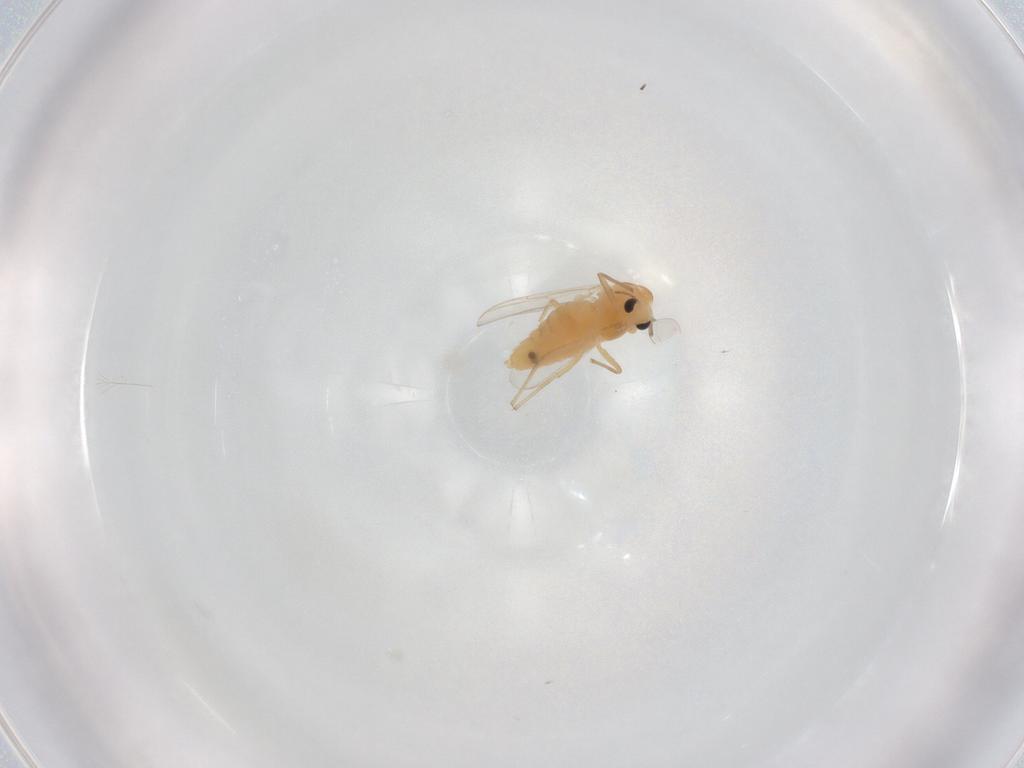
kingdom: Animalia
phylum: Arthropoda
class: Insecta
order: Diptera
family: Chironomidae
